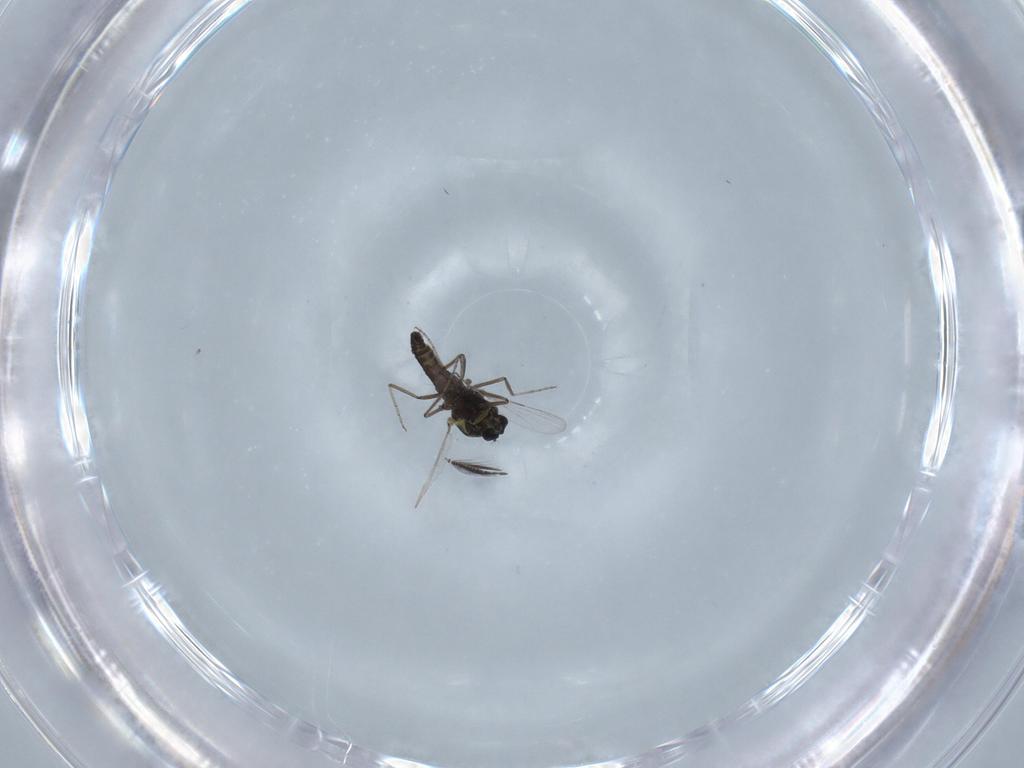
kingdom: Animalia
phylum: Arthropoda
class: Insecta
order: Diptera
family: Ceratopogonidae
